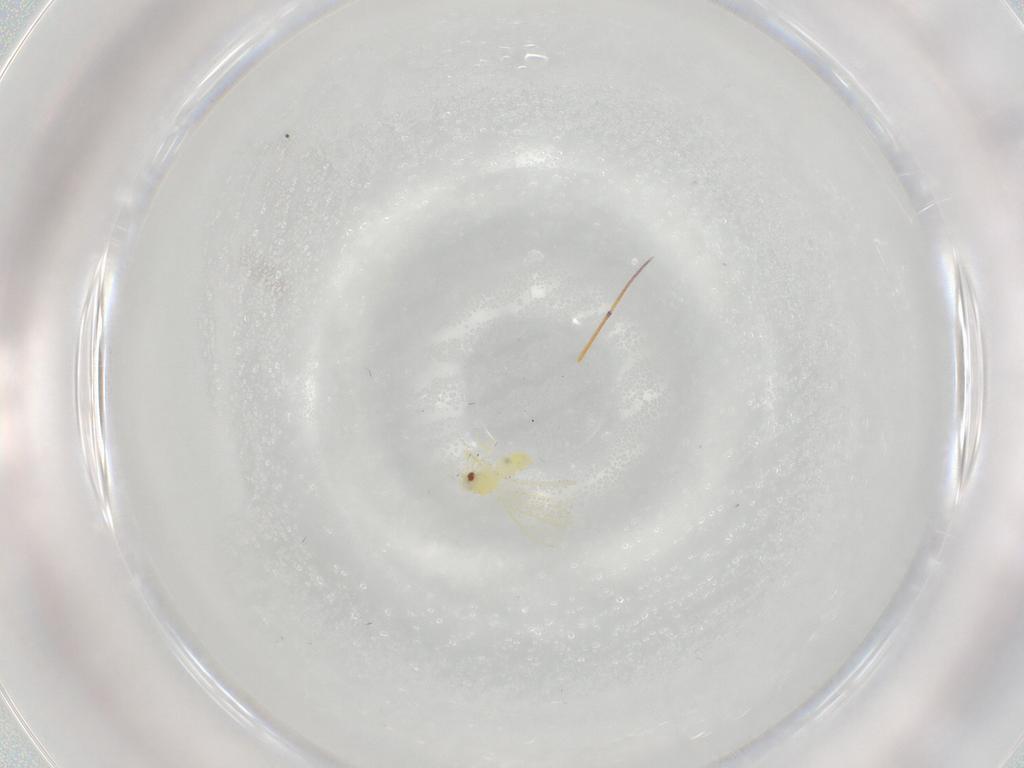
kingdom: Animalia
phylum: Arthropoda
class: Insecta
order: Hemiptera
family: Aleyrodidae
